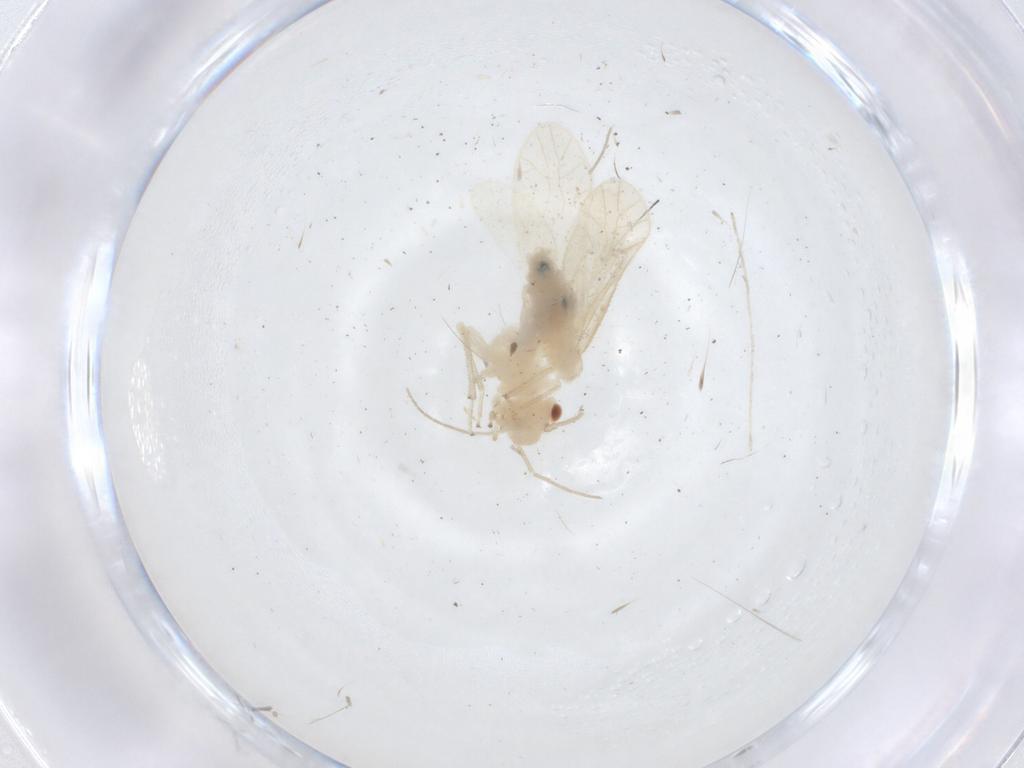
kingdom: Animalia
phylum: Arthropoda
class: Insecta
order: Psocodea
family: Caeciliusidae
